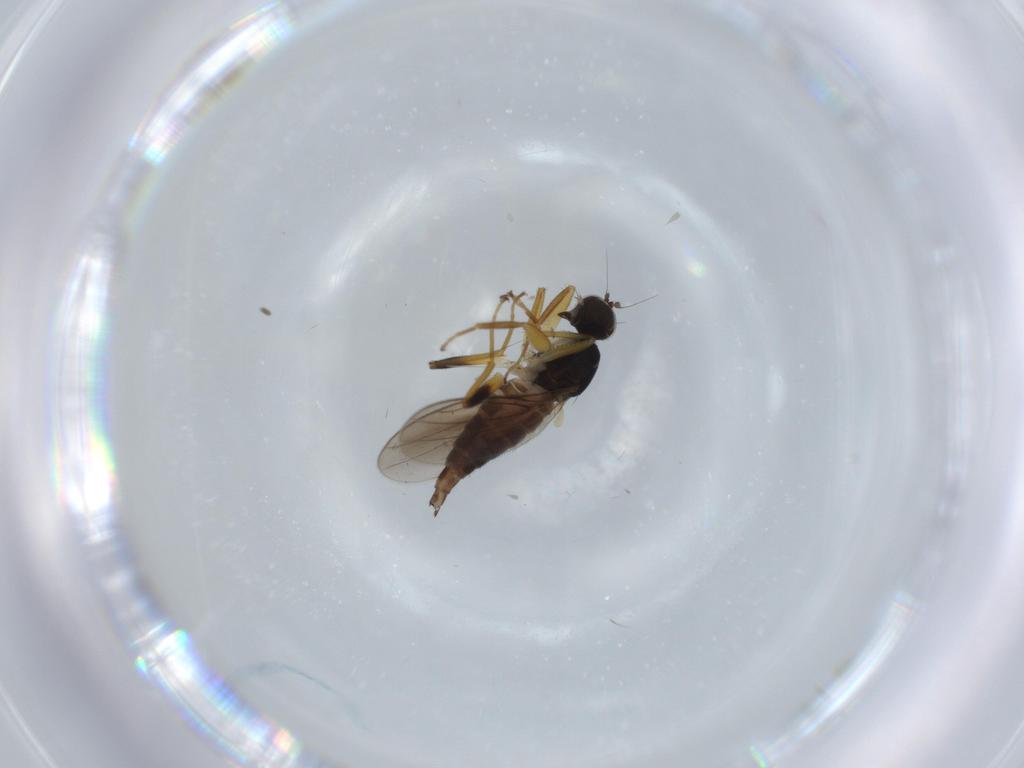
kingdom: Animalia
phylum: Arthropoda
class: Insecta
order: Diptera
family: Hybotidae
